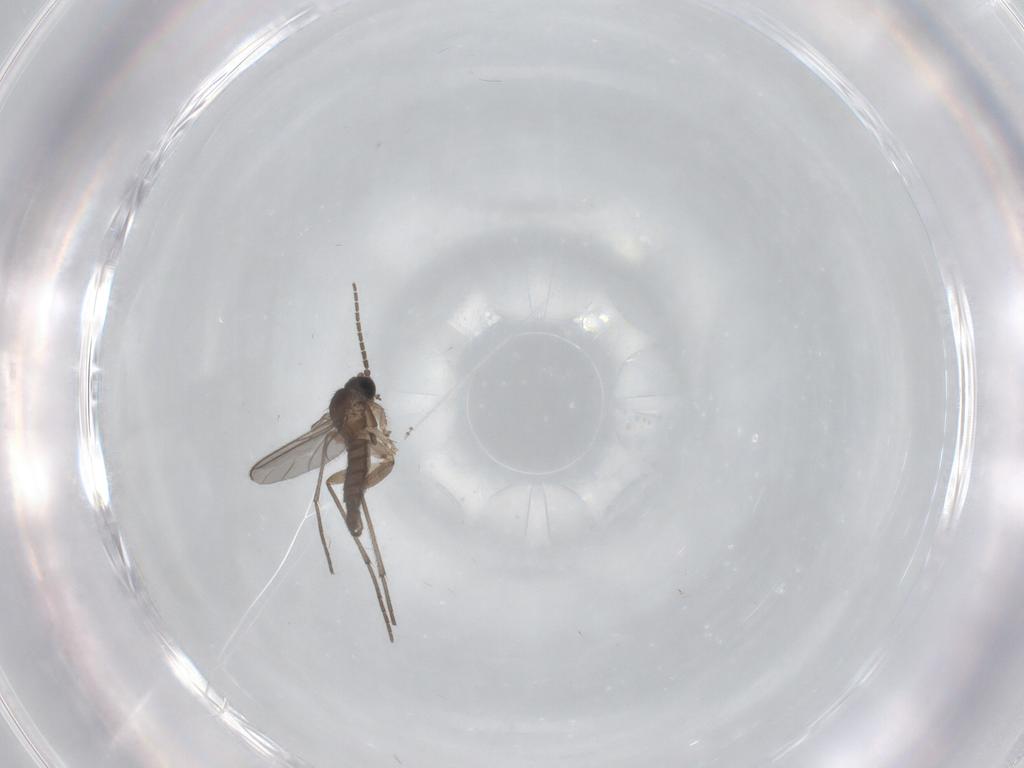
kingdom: Animalia
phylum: Arthropoda
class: Insecta
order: Diptera
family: Sciaridae
